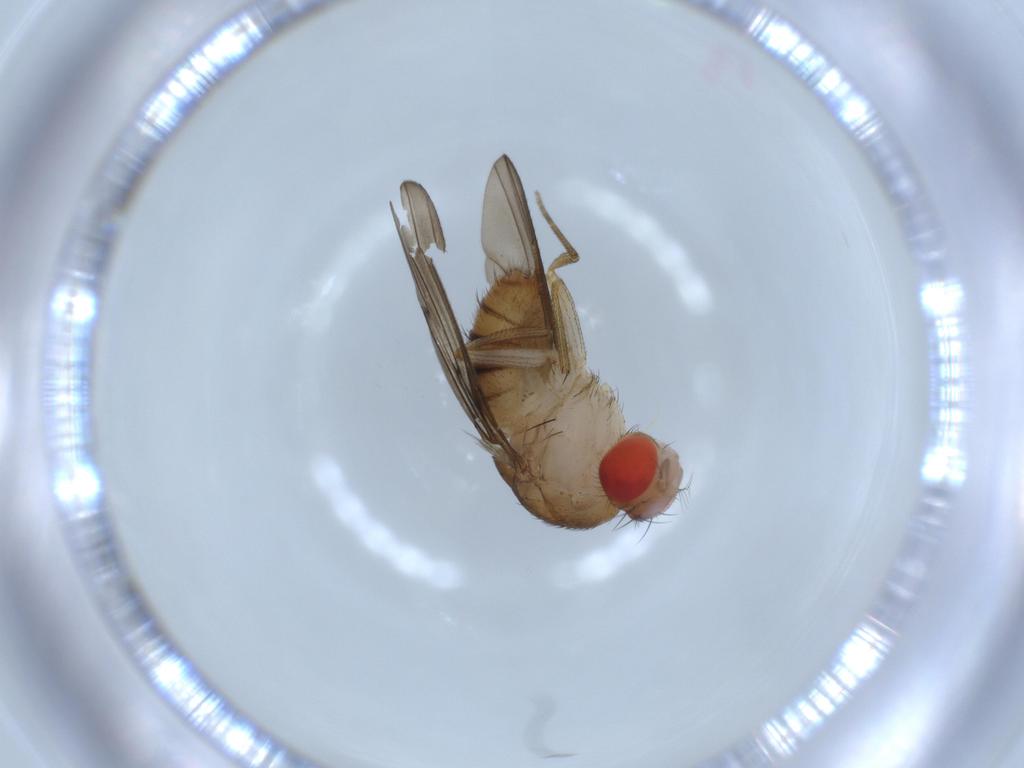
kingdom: Animalia
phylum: Arthropoda
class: Insecta
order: Diptera
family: Drosophilidae
